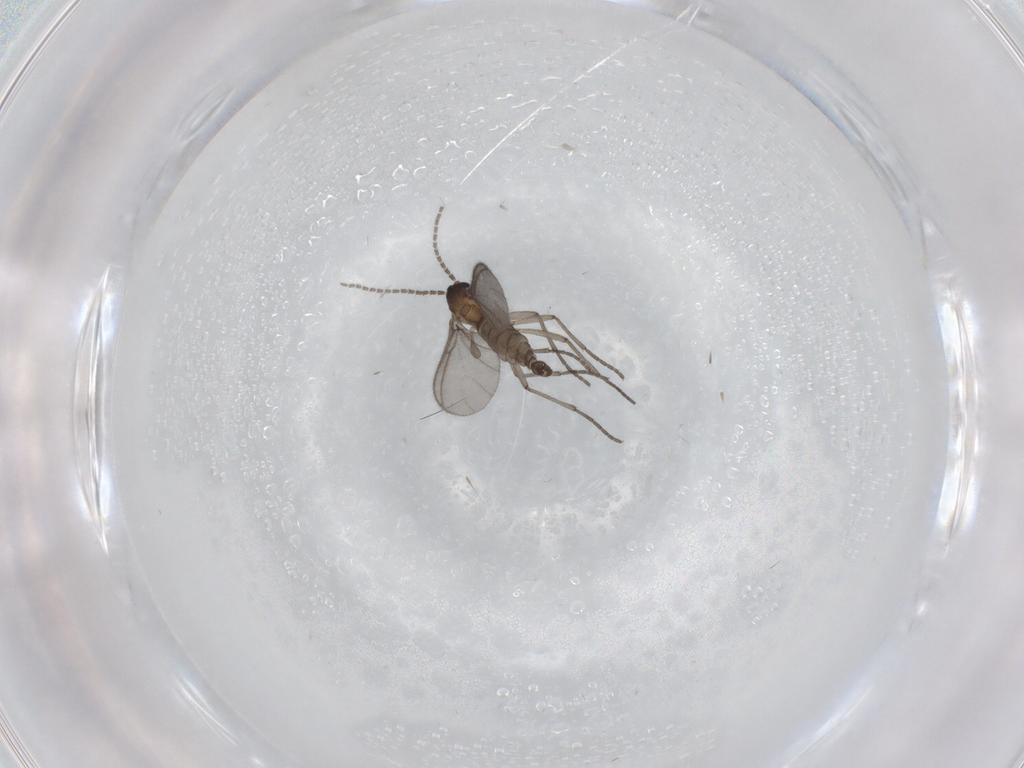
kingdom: Animalia
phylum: Arthropoda
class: Insecta
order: Diptera
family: Sciaridae
